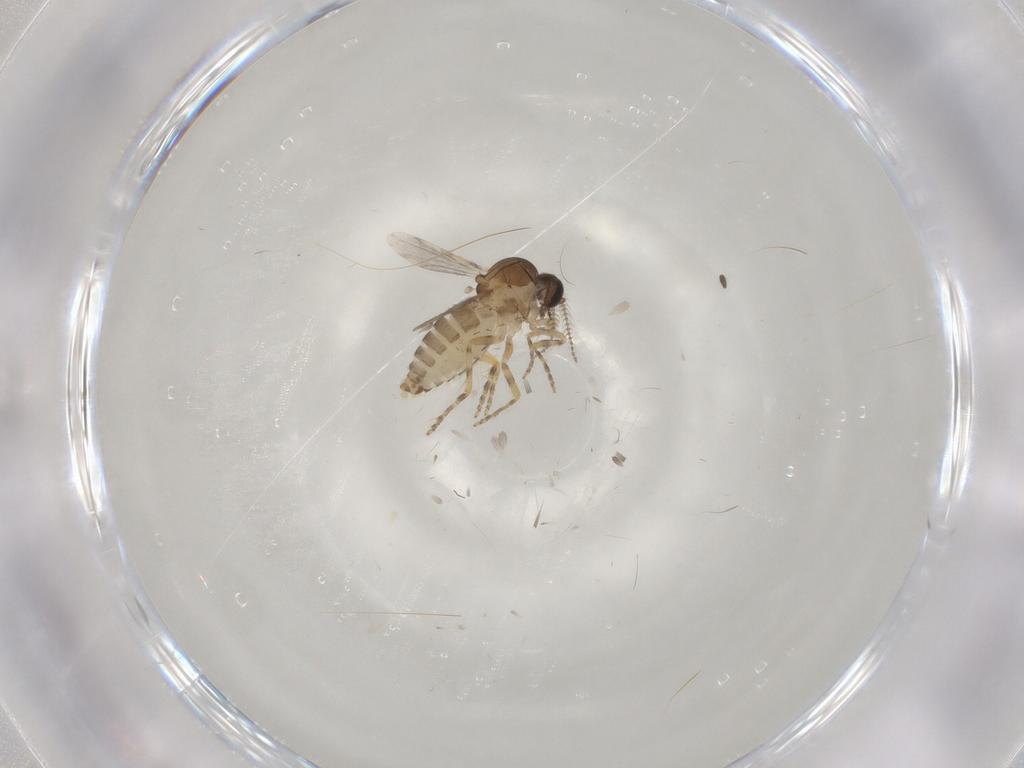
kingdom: Animalia
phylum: Arthropoda
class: Insecta
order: Diptera
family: Ceratopogonidae
